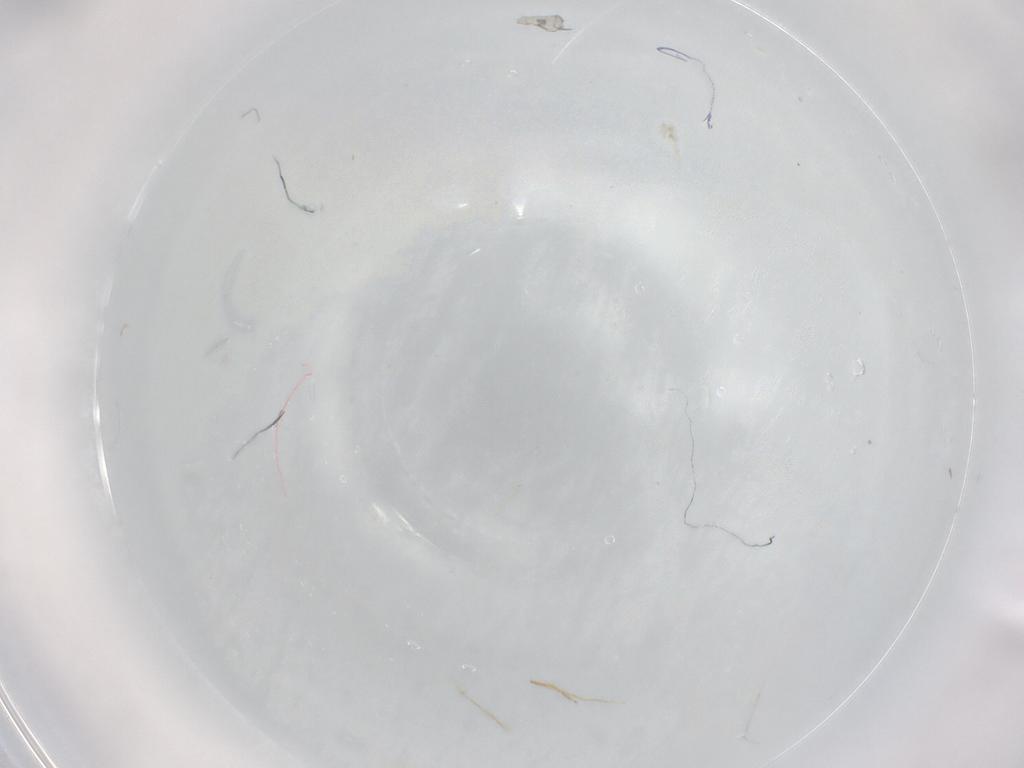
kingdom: Animalia
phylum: Arthropoda
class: Insecta
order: Diptera
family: Cecidomyiidae
